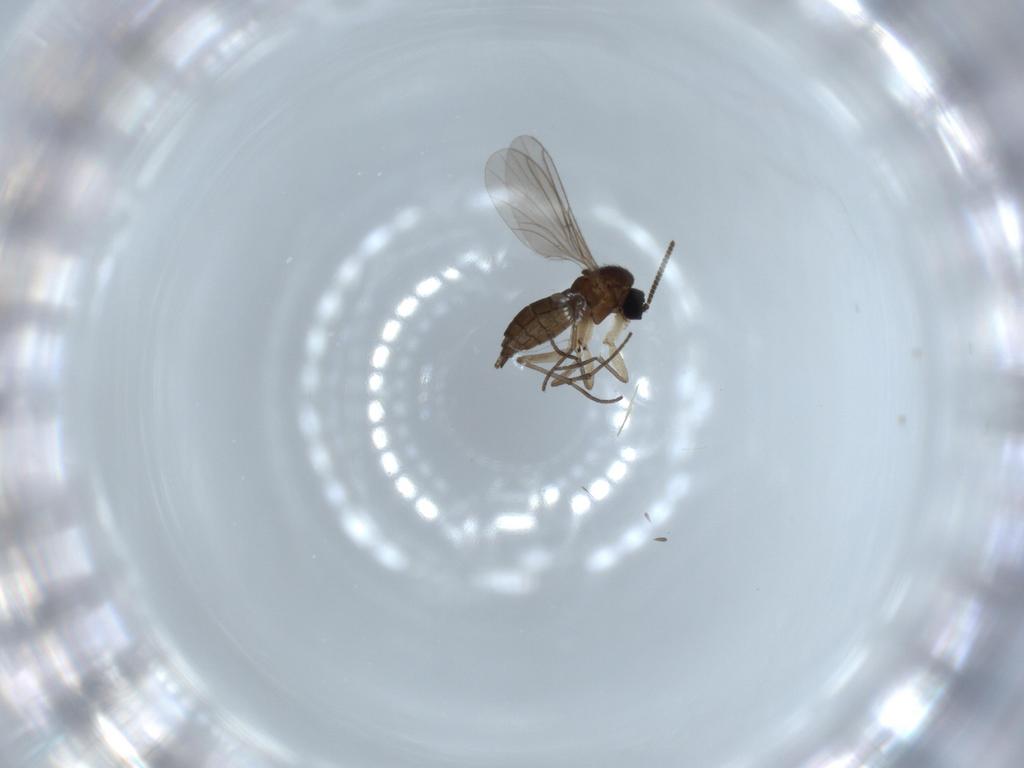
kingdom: Animalia
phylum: Arthropoda
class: Insecta
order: Diptera
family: Sciaridae
